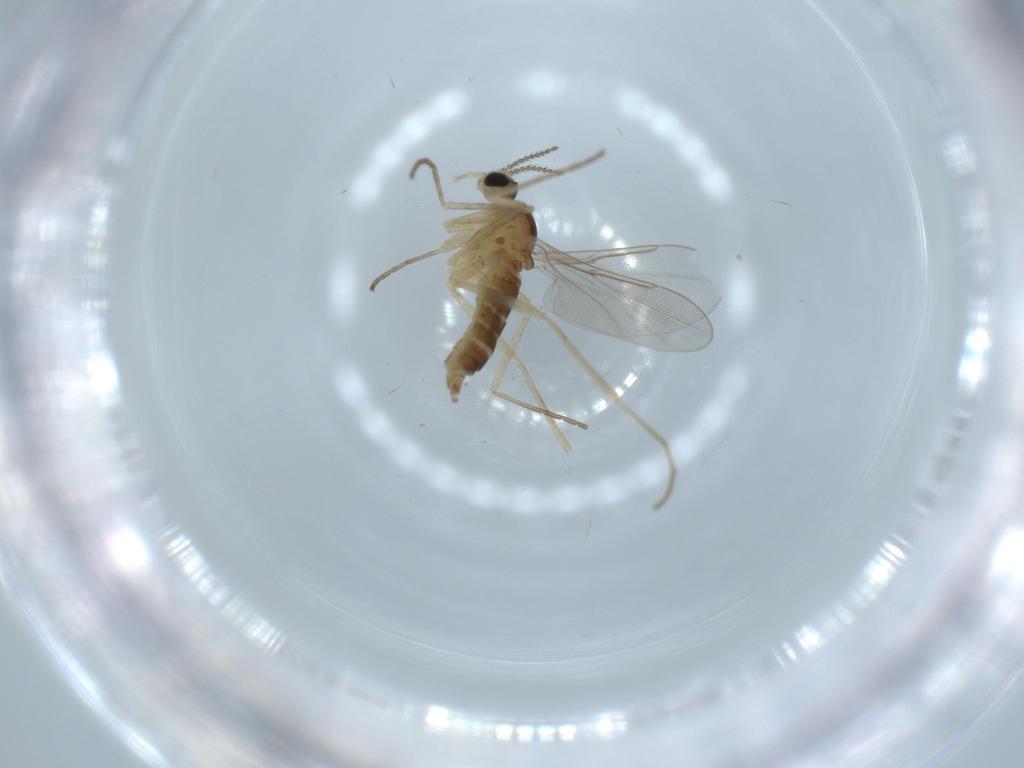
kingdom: Animalia
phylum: Arthropoda
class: Insecta
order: Diptera
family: Cecidomyiidae
